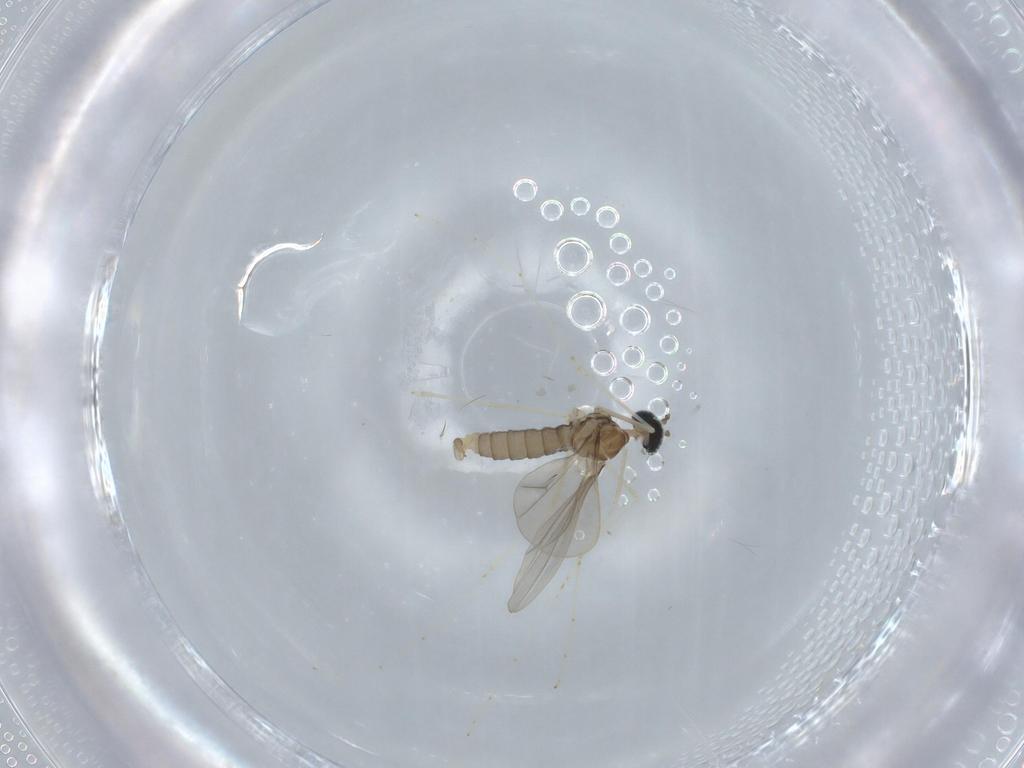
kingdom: Animalia
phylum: Arthropoda
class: Insecta
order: Diptera
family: Cecidomyiidae
